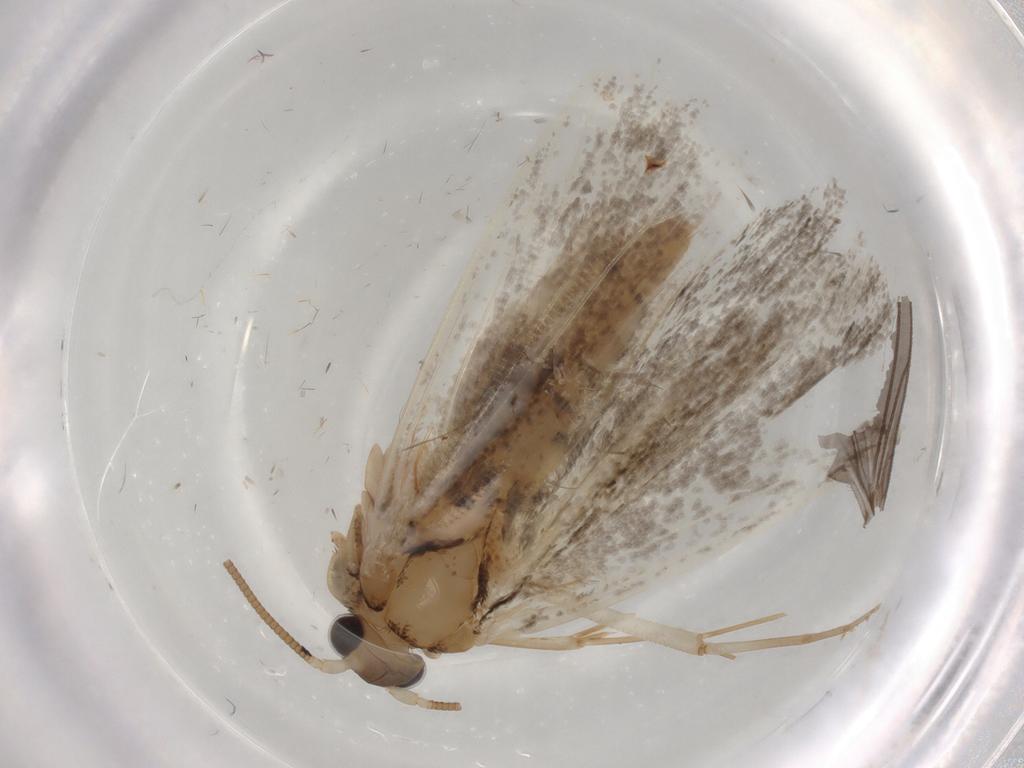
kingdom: Animalia
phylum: Arthropoda
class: Insecta
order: Lepidoptera
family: Tineidae
